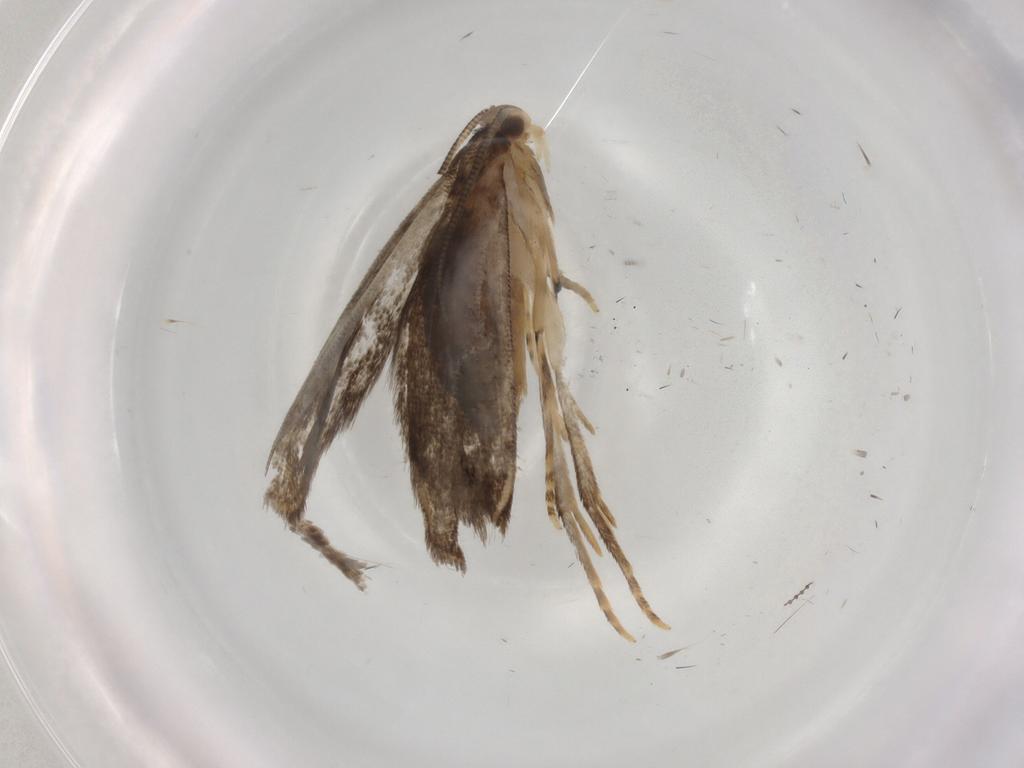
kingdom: Animalia
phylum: Arthropoda
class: Insecta
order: Lepidoptera
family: Dryadaulidae
